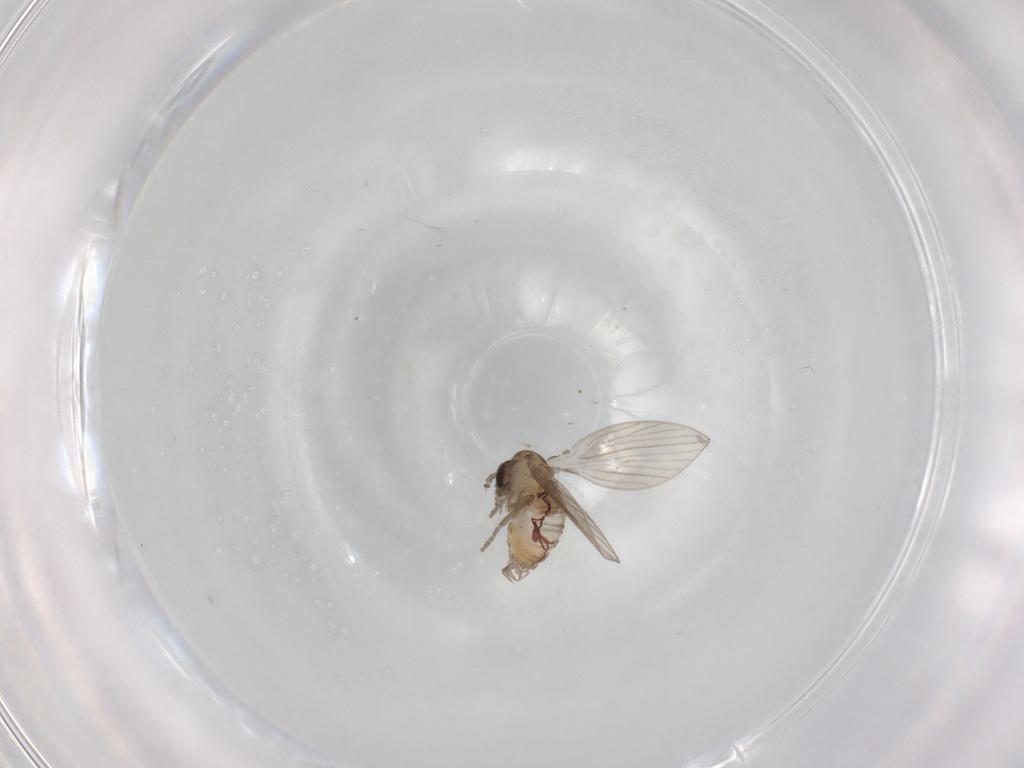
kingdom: Animalia
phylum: Arthropoda
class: Insecta
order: Diptera
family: Psychodidae
